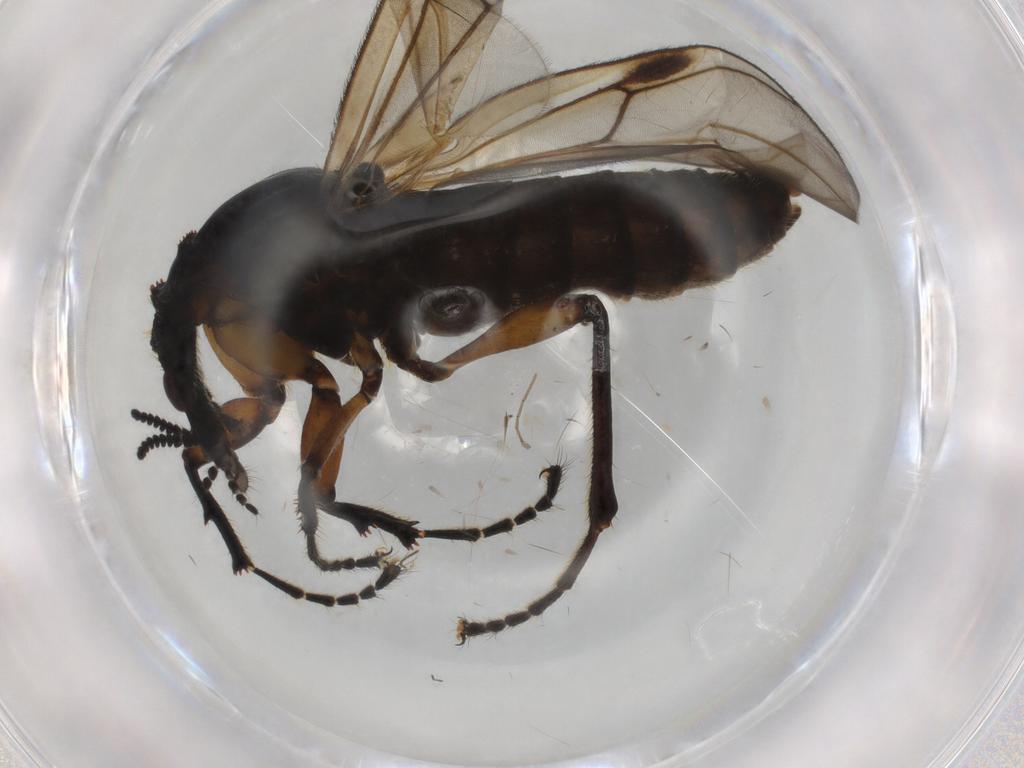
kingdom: Animalia
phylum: Arthropoda
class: Insecta
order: Diptera
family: Bibionidae
